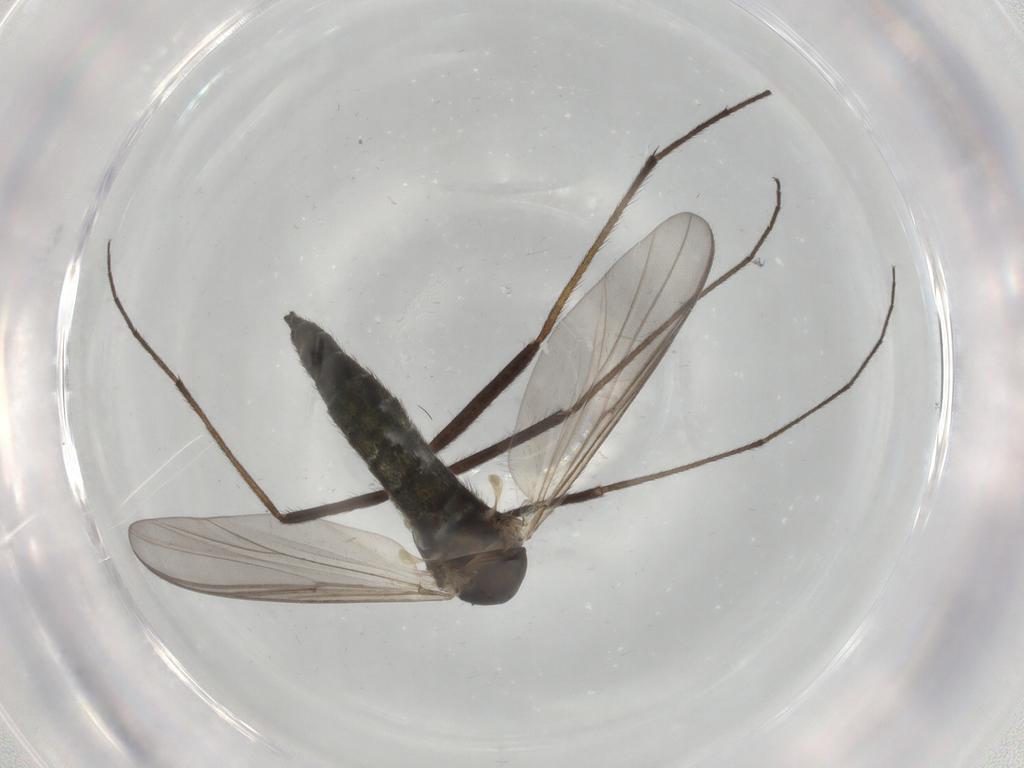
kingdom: Animalia
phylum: Arthropoda
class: Insecta
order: Diptera
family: Chironomidae
